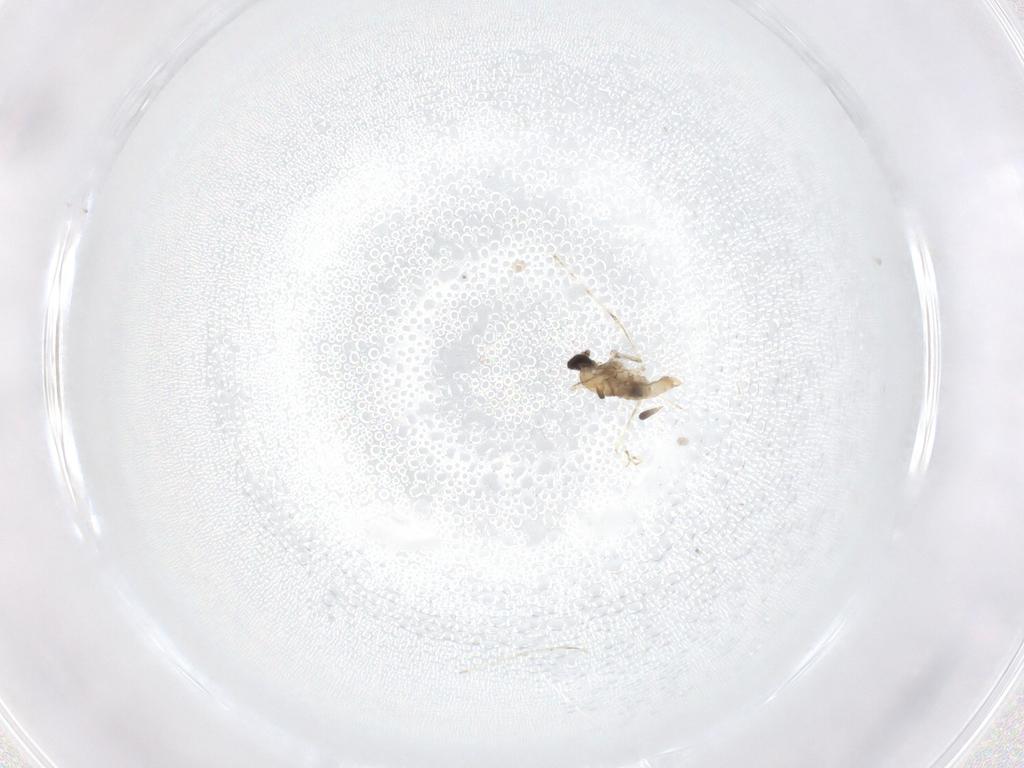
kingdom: Animalia
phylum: Arthropoda
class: Insecta
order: Diptera
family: Cecidomyiidae
